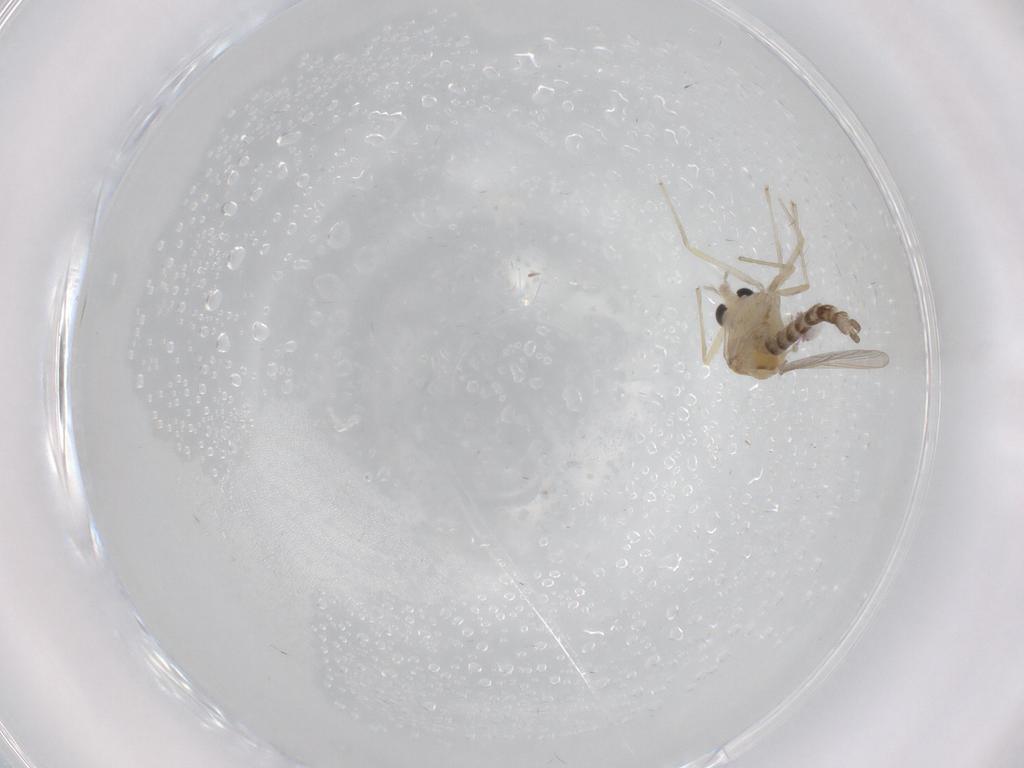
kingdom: Animalia
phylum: Arthropoda
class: Insecta
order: Diptera
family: Chironomidae
